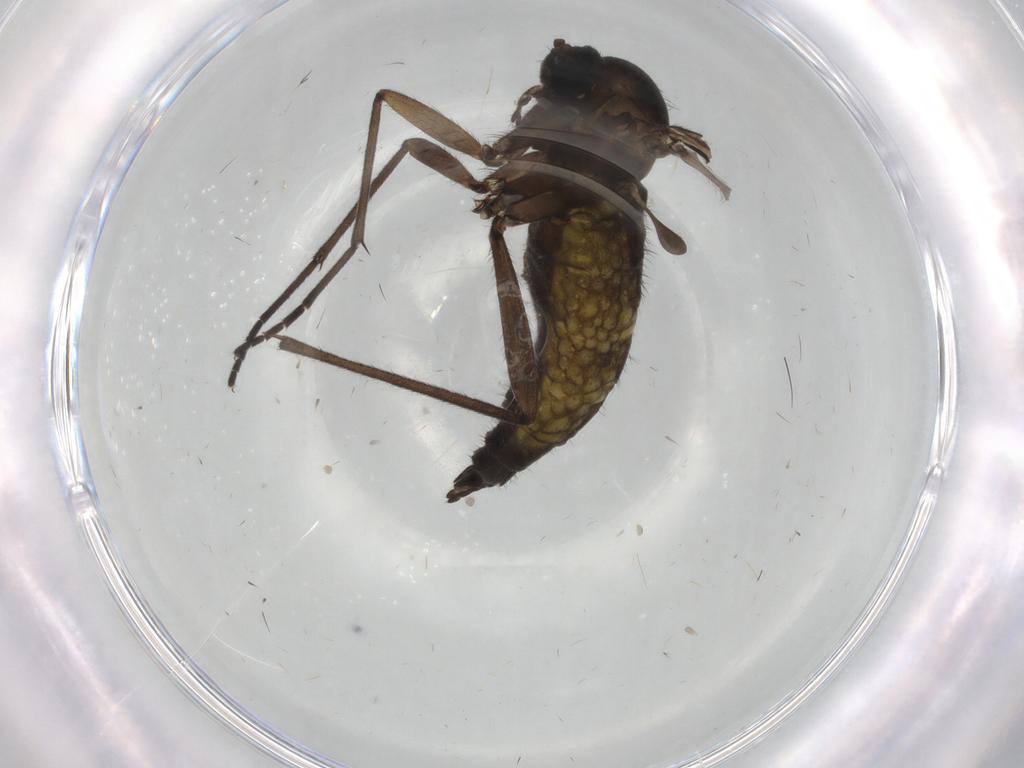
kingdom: Animalia
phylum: Arthropoda
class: Insecta
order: Diptera
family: Sciaridae
